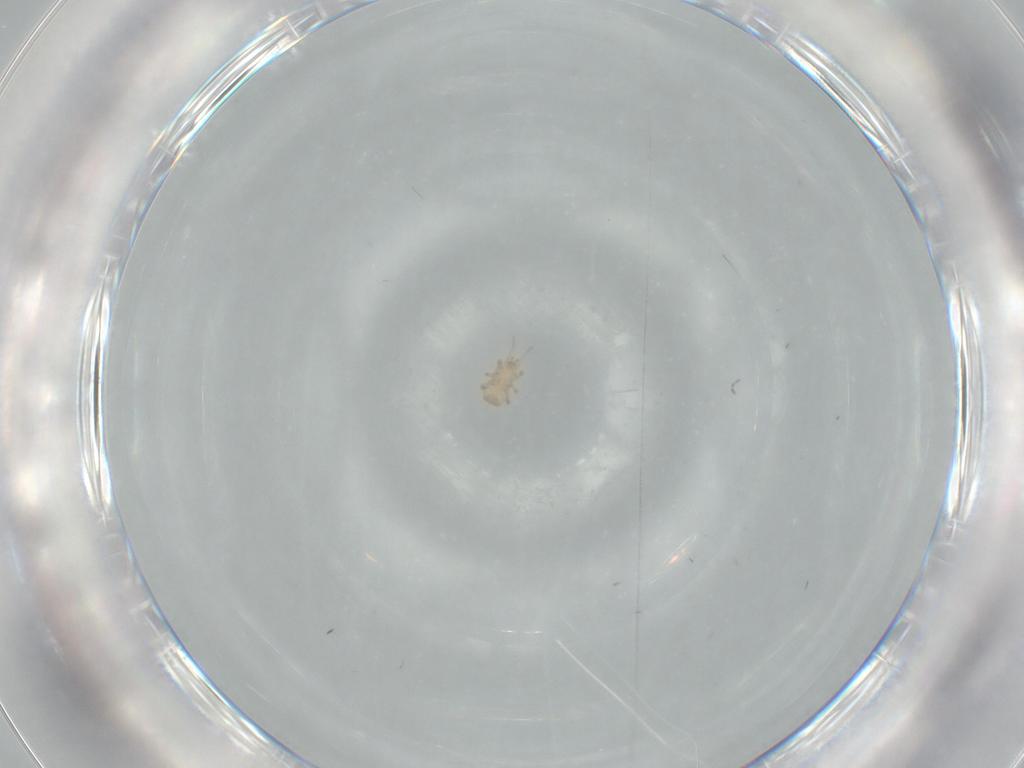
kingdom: Animalia
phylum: Arthropoda
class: Arachnida
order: Mesostigmata
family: Digamasellidae
